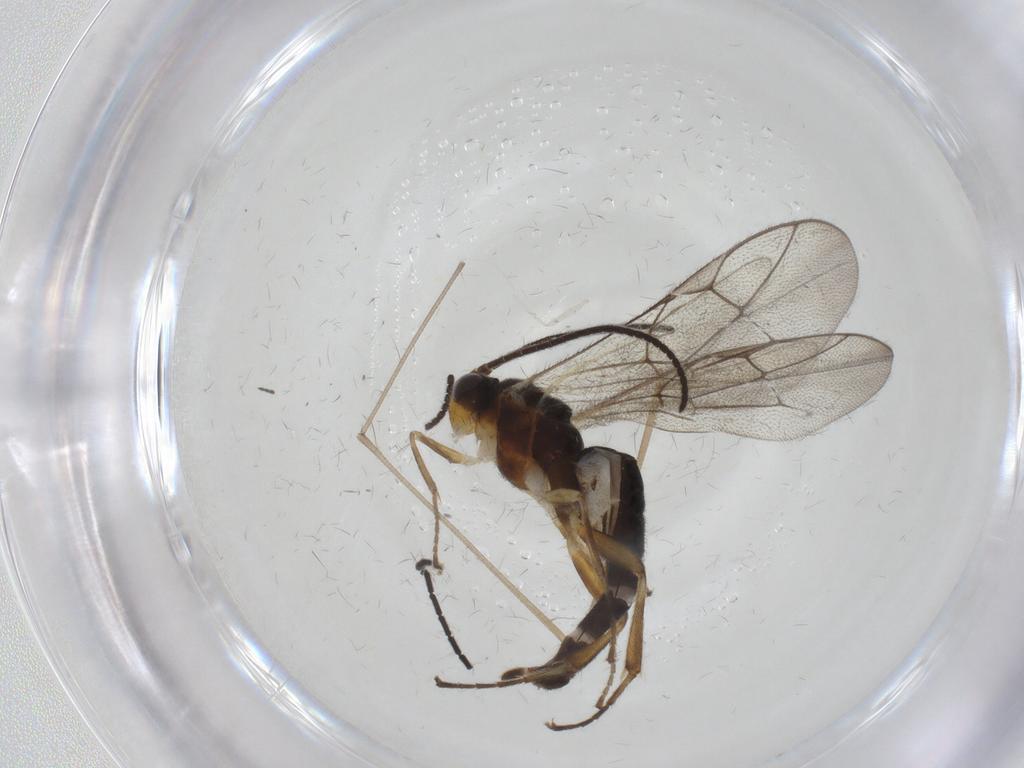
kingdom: Animalia
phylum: Arthropoda
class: Insecta
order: Hymenoptera
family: Ichneumonidae
